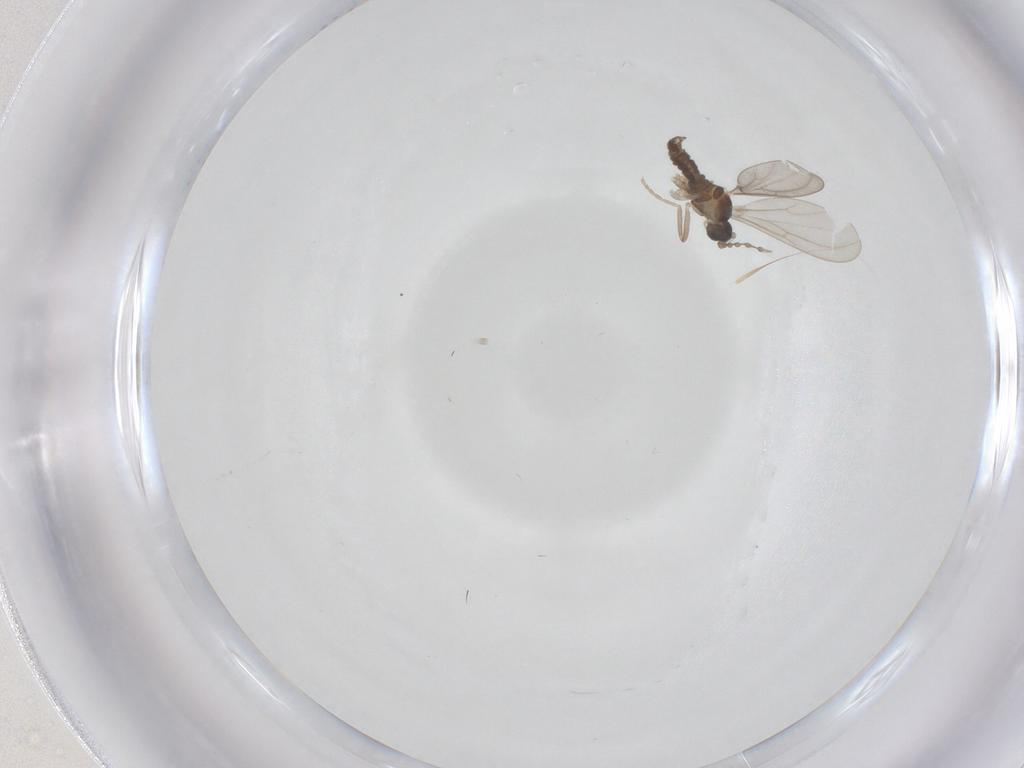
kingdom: Animalia
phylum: Arthropoda
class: Insecta
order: Diptera
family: Cecidomyiidae
